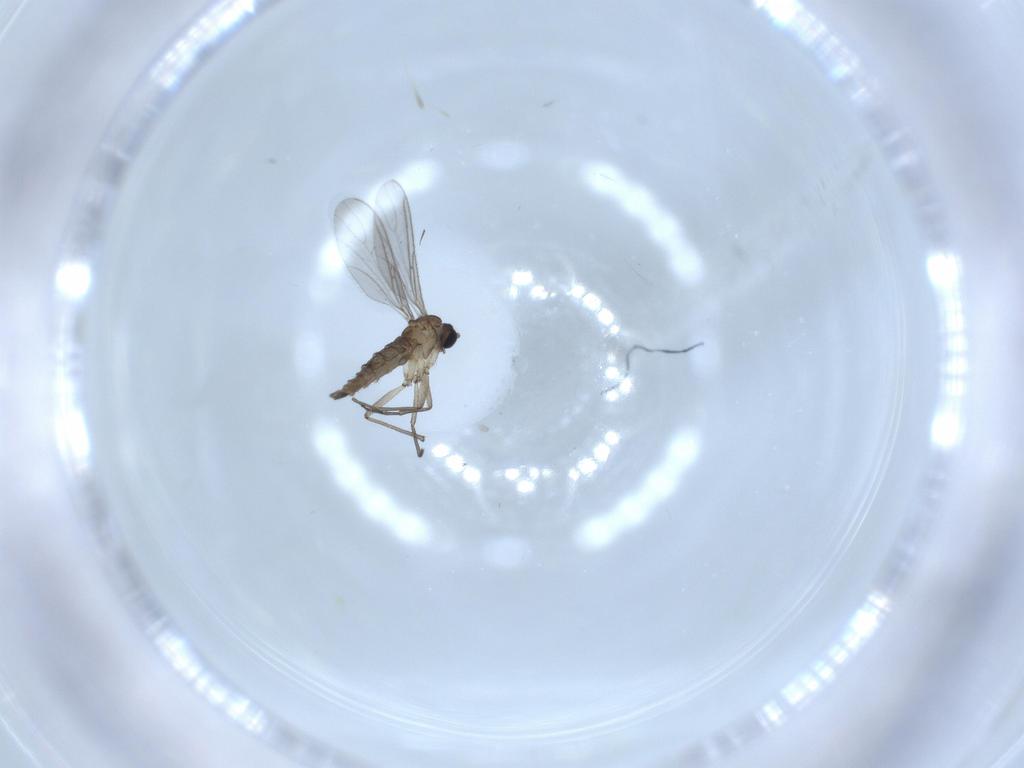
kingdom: Animalia
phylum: Arthropoda
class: Insecta
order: Diptera
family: Sciaridae
